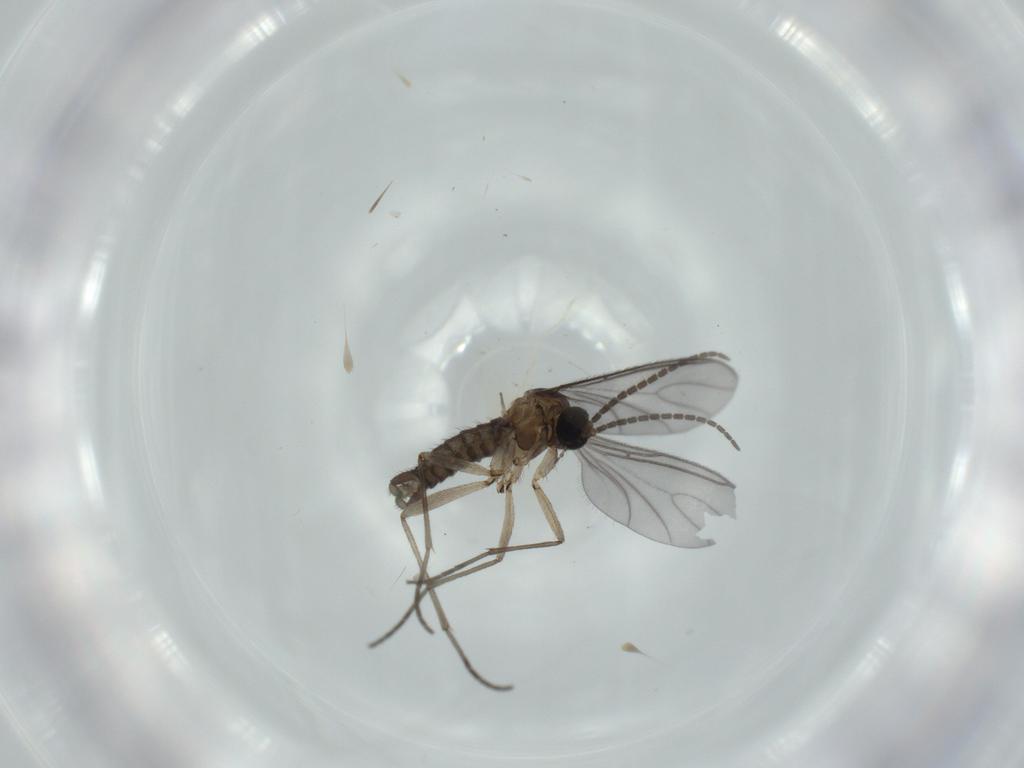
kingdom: Animalia
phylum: Arthropoda
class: Insecta
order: Diptera
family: Sciaridae
